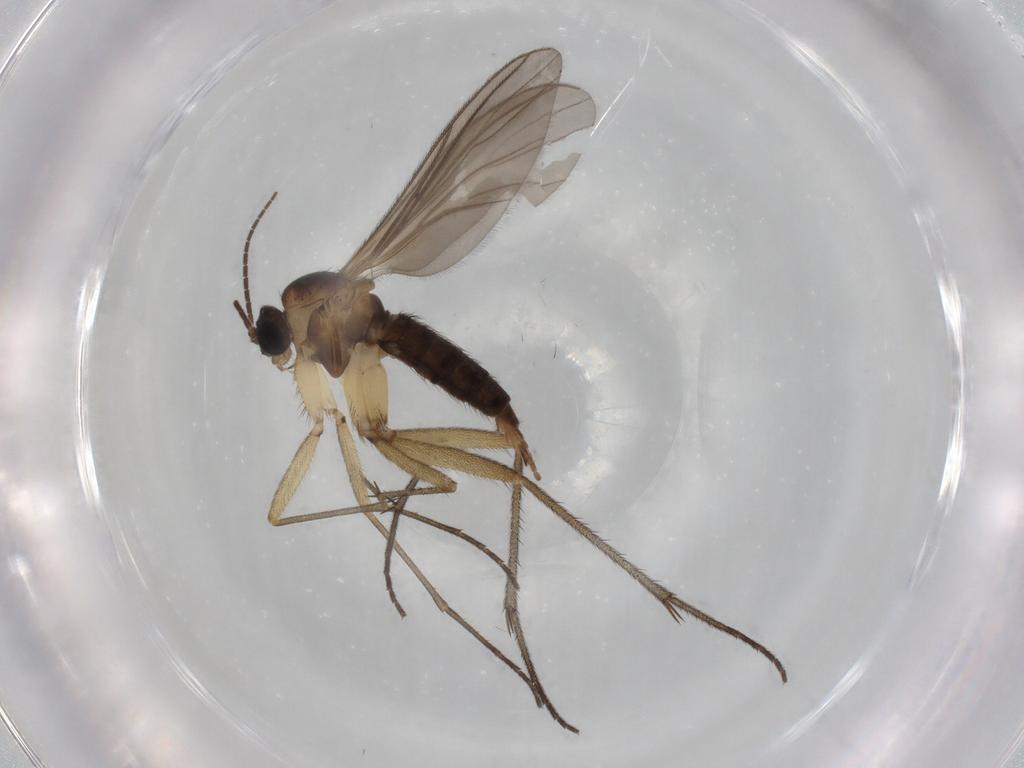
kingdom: Animalia
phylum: Arthropoda
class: Insecta
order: Diptera
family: Sciaridae
